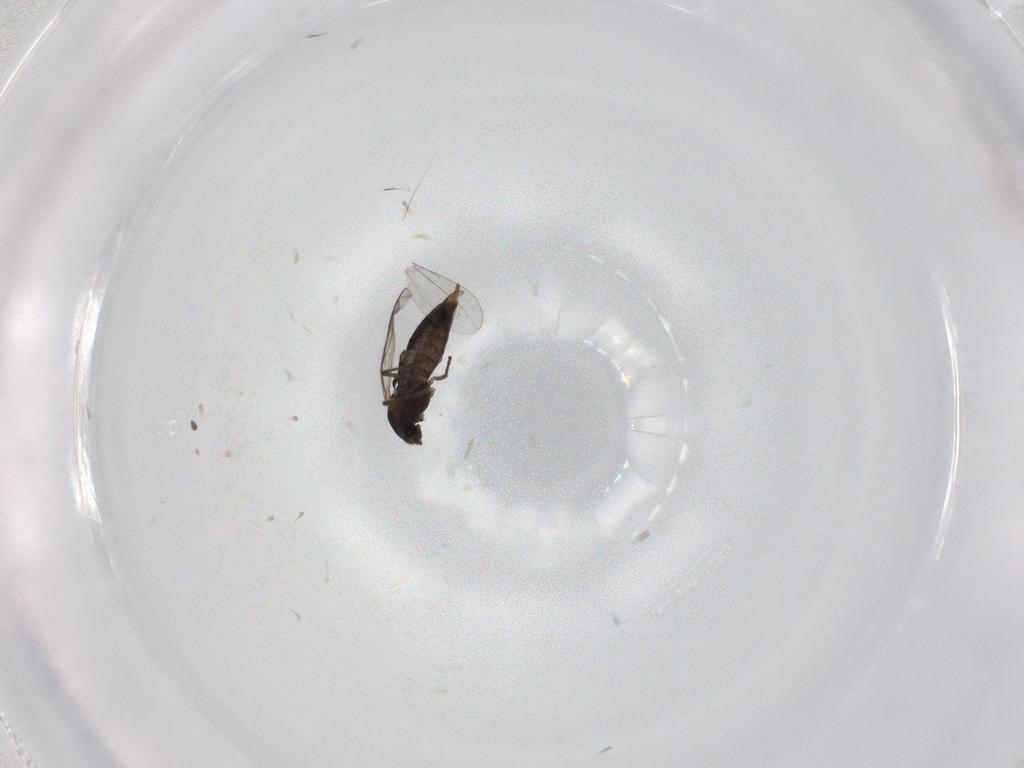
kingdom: Animalia
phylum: Arthropoda
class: Insecta
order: Diptera
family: Chironomidae
